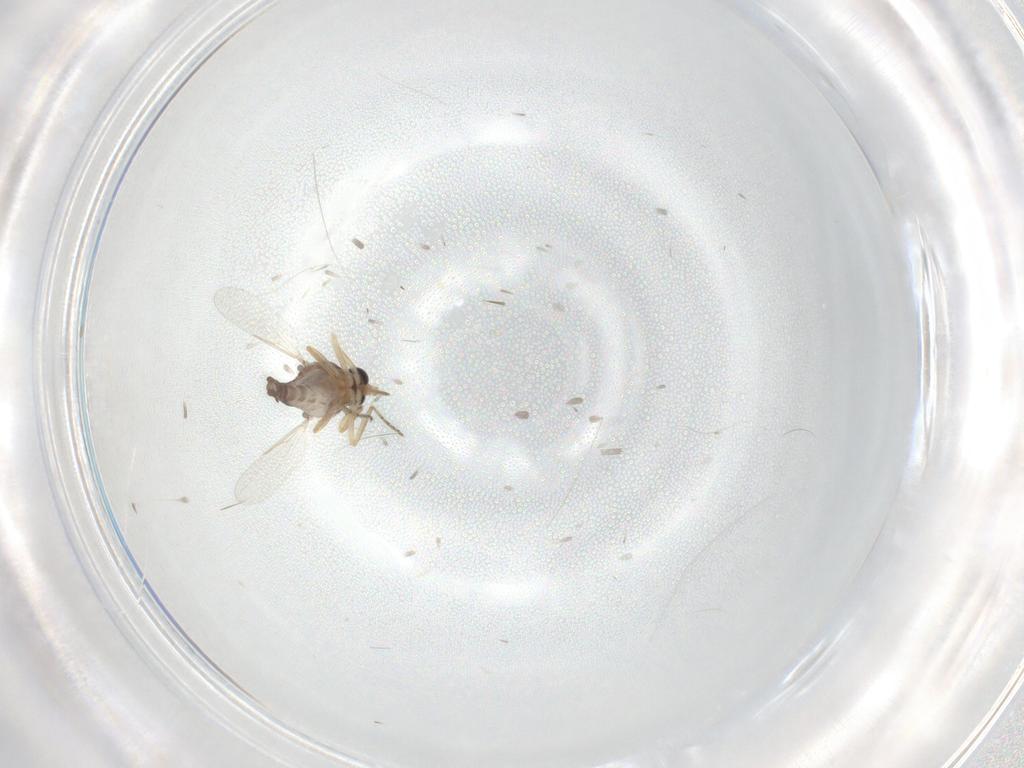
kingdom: Animalia
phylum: Arthropoda
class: Insecta
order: Diptera
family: Ceratopogonidae
